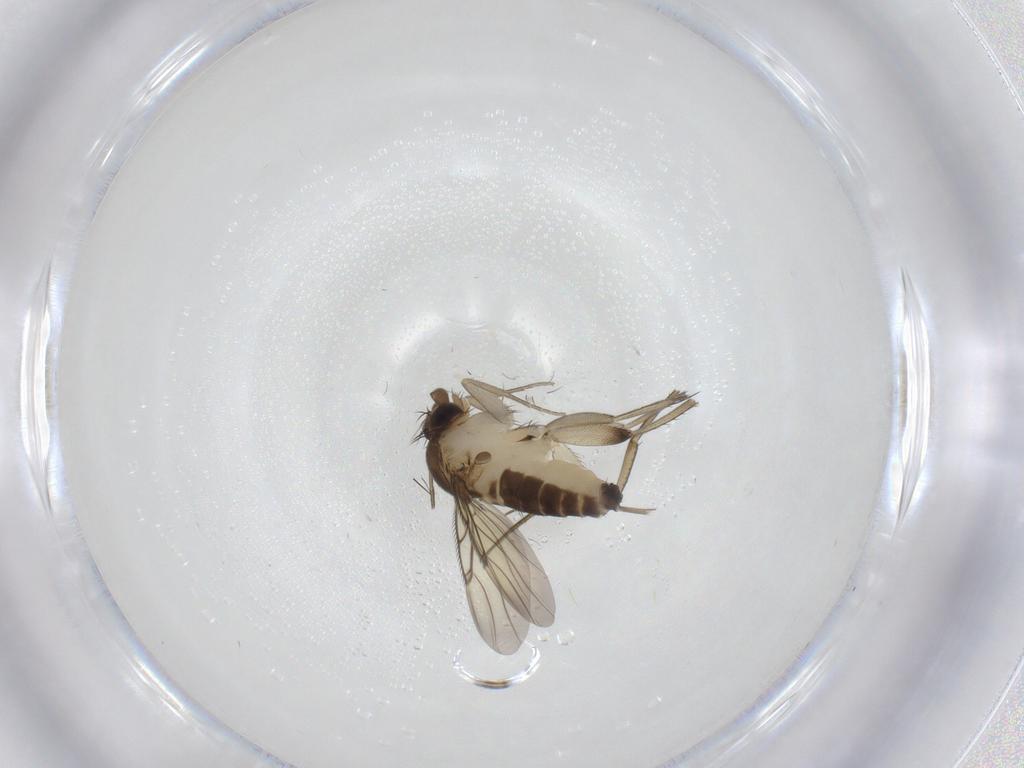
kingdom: Animalia
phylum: Arthropoda
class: Insecta
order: Diptera
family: Phoridae
